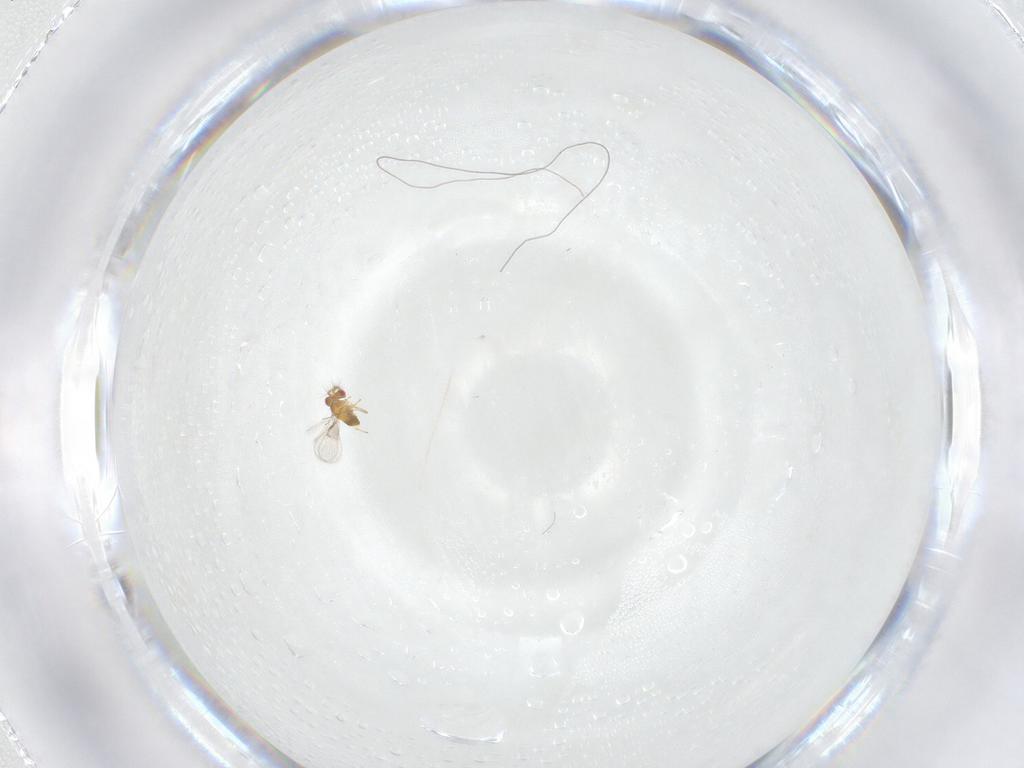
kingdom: Animalia
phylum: Arthropoda
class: Insecta
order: Hymenoptera
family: Trichogrammatidae
